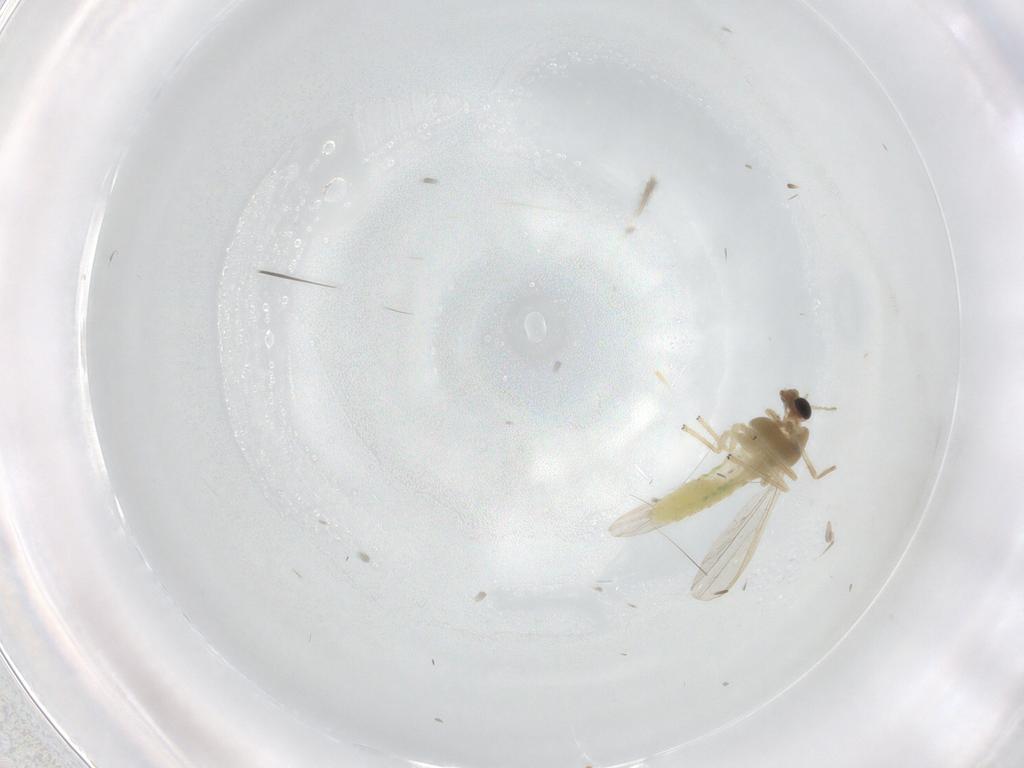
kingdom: Animalia
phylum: Arthropoda
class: Insecta
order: Diptera
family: Chironomidae
